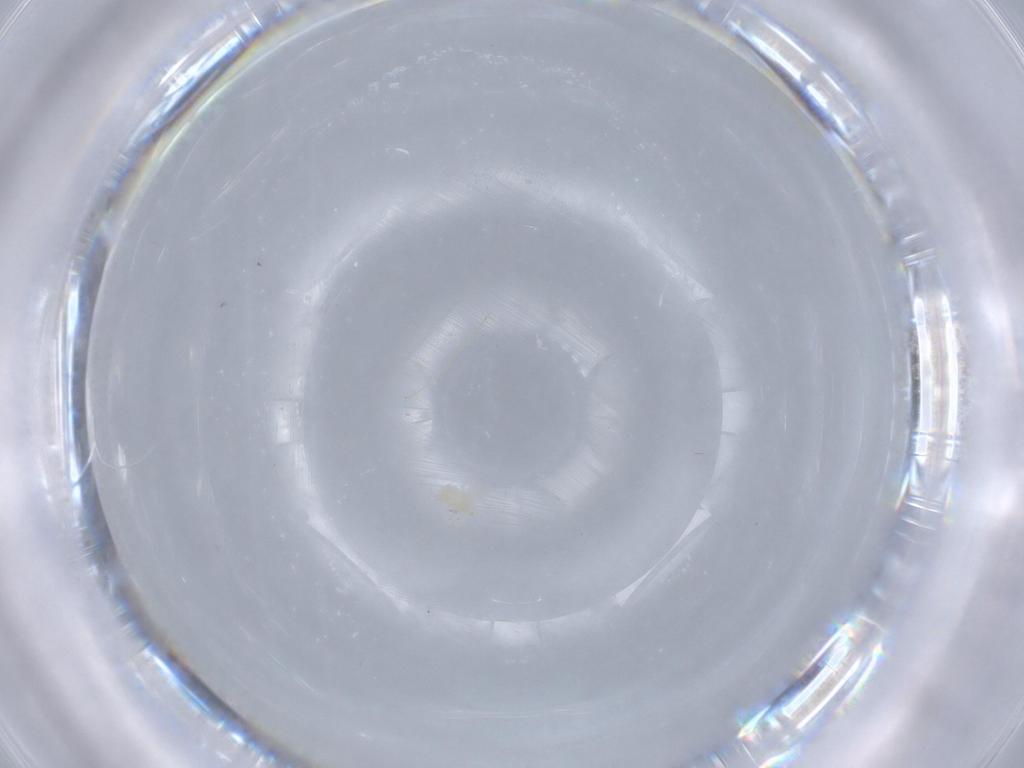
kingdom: Animalia
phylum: Arthropoda
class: Arachnida
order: Trombidiformes
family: Anystidae
